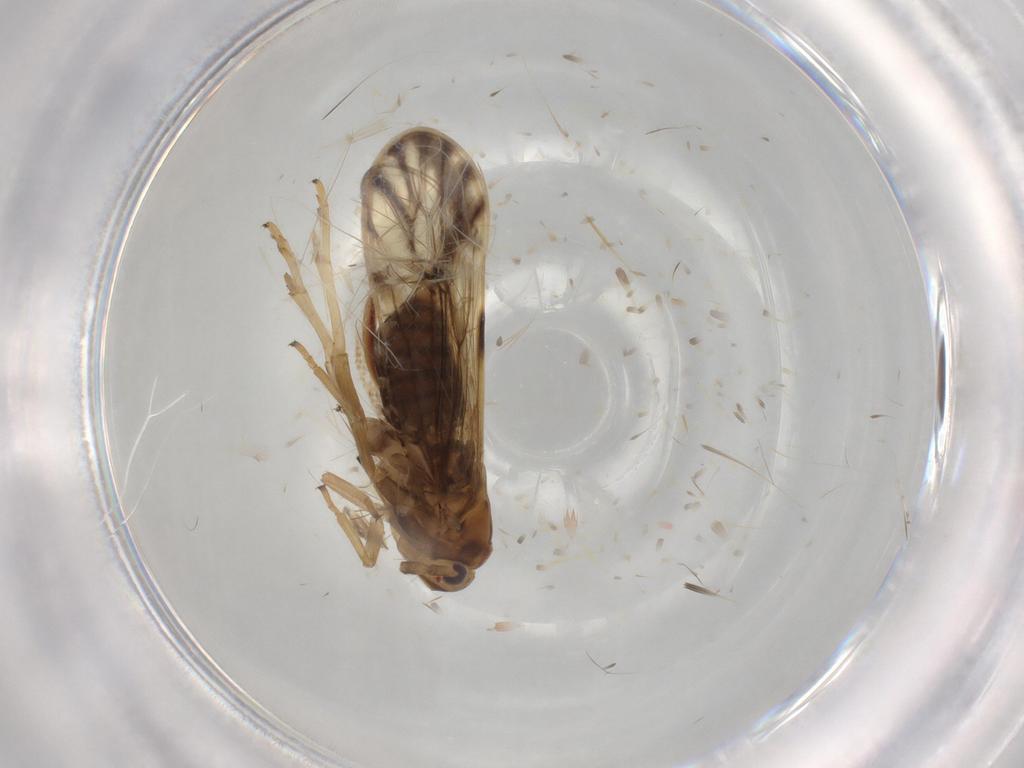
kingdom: Animalia
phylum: Arthropoda
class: Insecta
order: Hemiptera
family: Delphacidae
